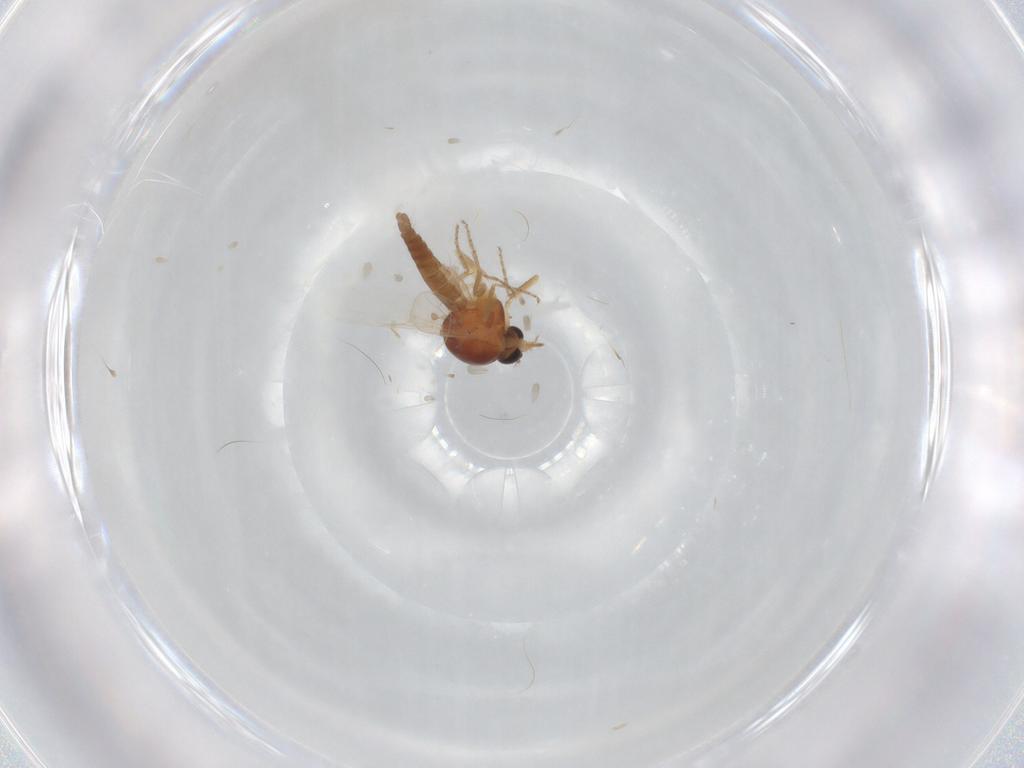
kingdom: Animalia
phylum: Arthropoda
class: Insecta
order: Diptera
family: Ceratopogonidae
